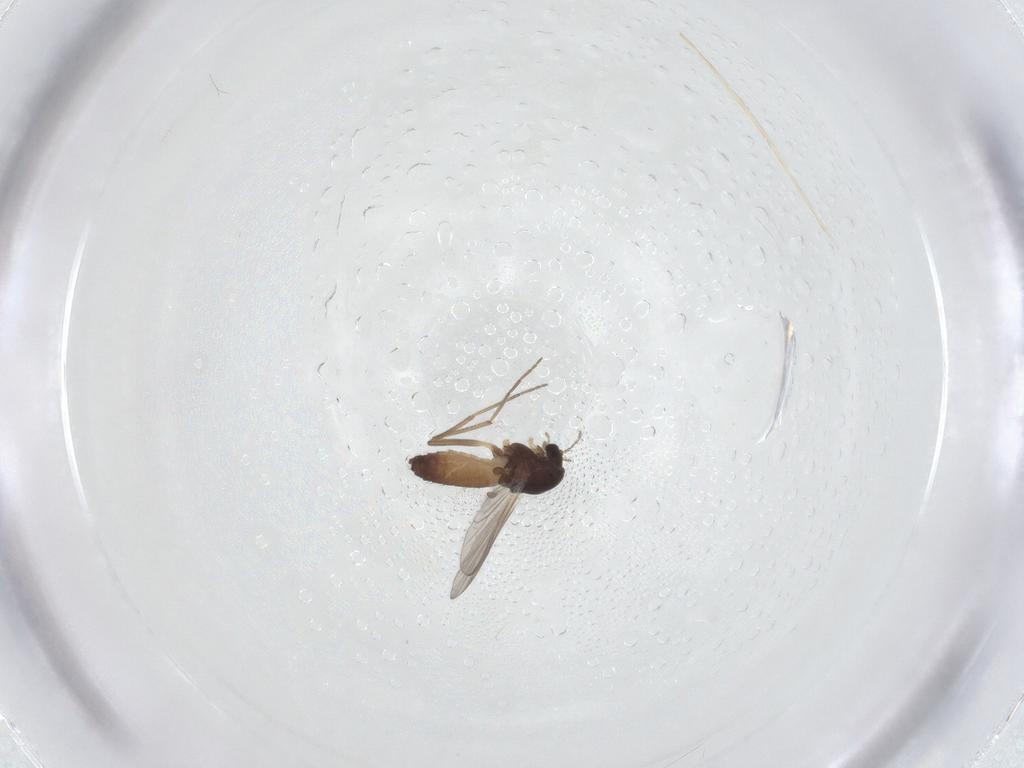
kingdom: Animalia
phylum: Arthropoda
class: Insecta
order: Diptera
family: Chironomidae
